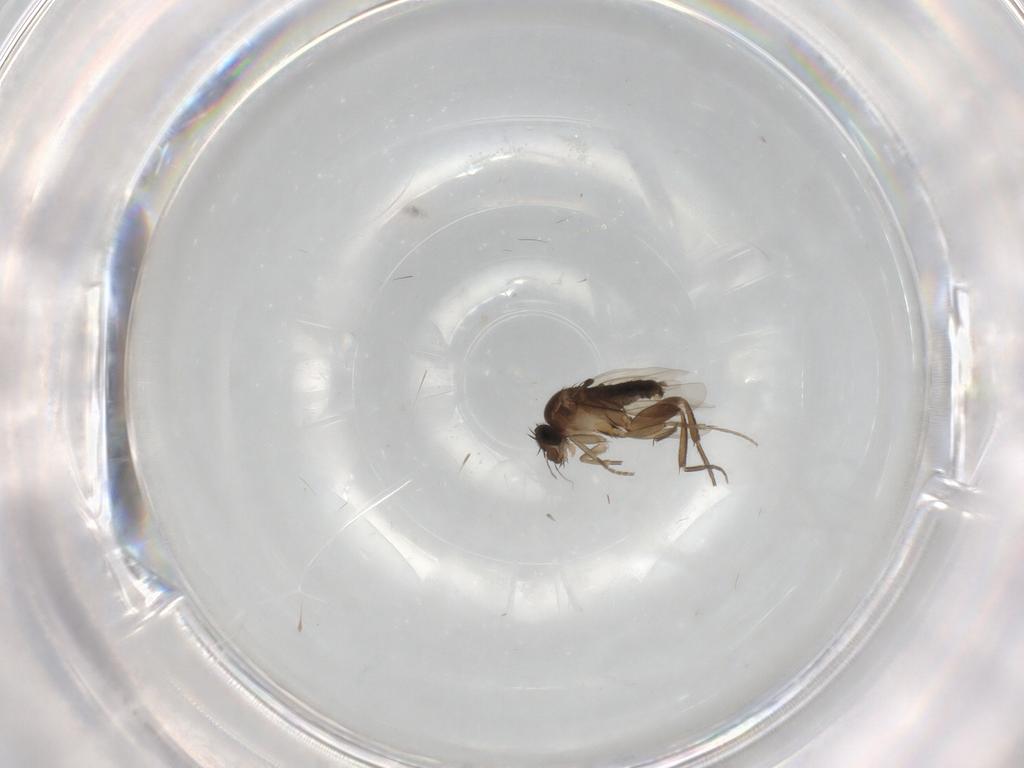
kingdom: Animalia
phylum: Arthropoda
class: Insecta
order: Diptera
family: Phoridae
